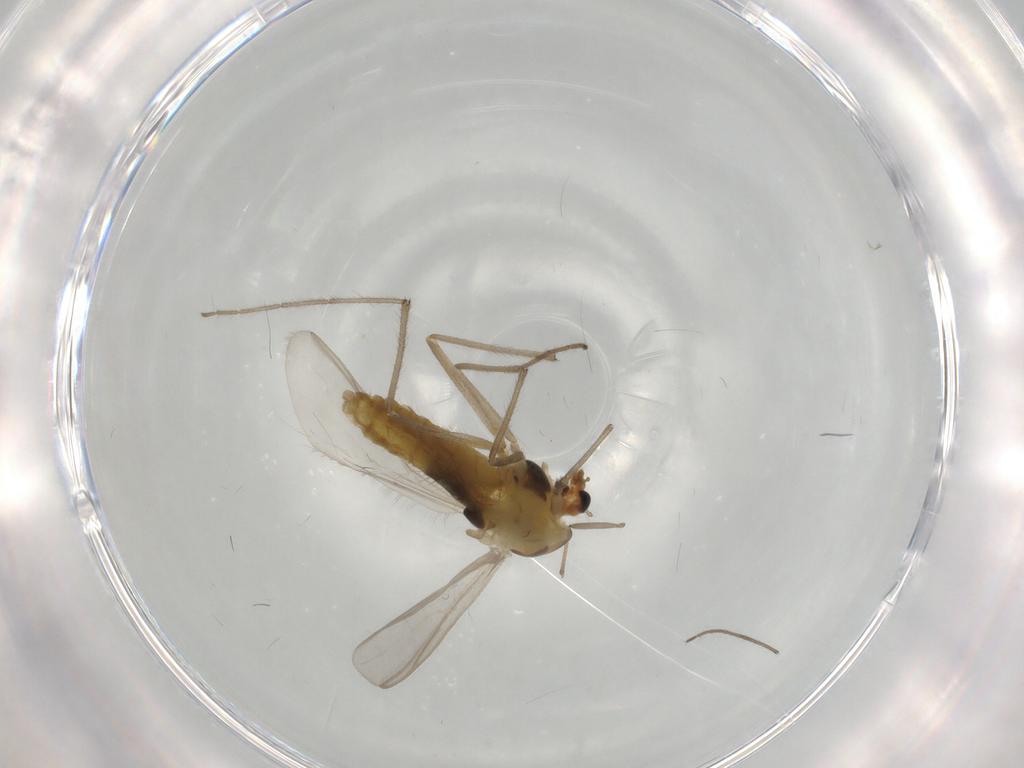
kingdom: Animalia
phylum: Arthropoda
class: Insecta
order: Diptera
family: Chironomidae
